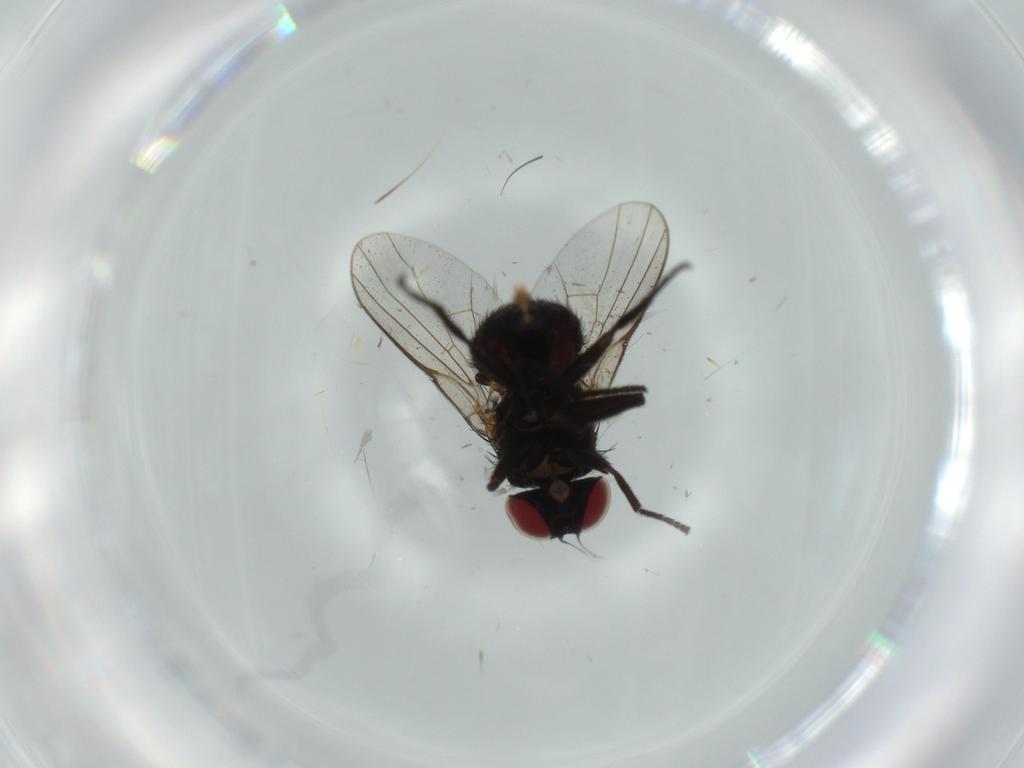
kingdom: Animalia
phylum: Arthropoda
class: Insecta
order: Diptera
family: Agromyzidae
